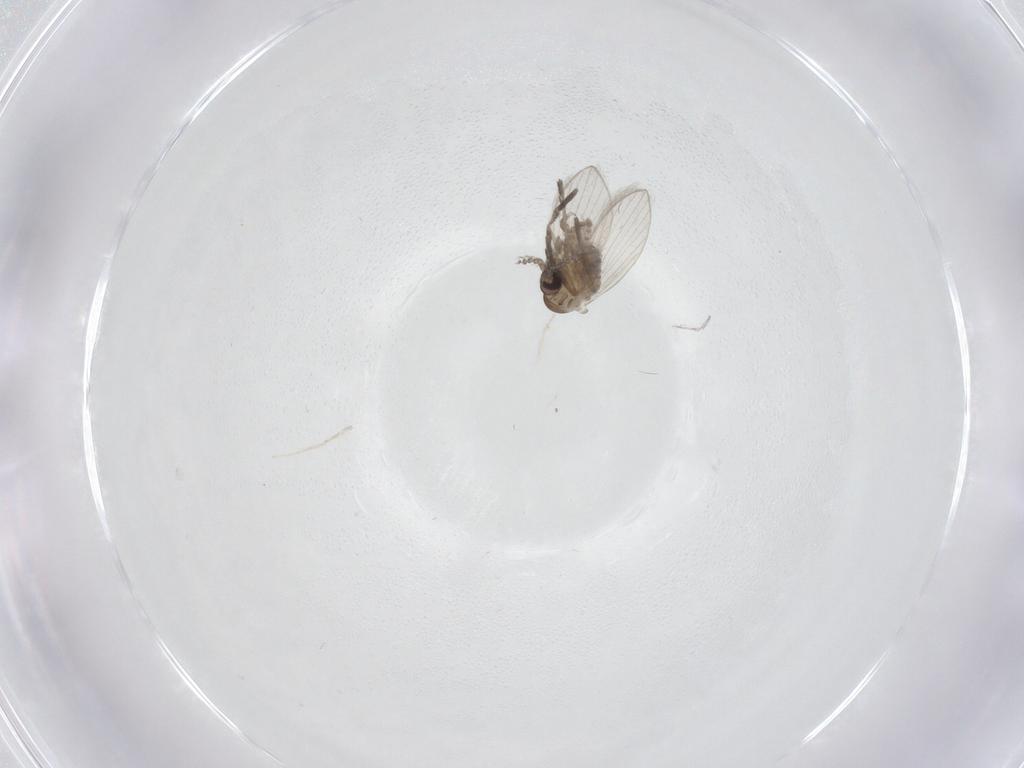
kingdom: Animalia
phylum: Arthropoda
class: Insecta
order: Diptera
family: Psychodidae
